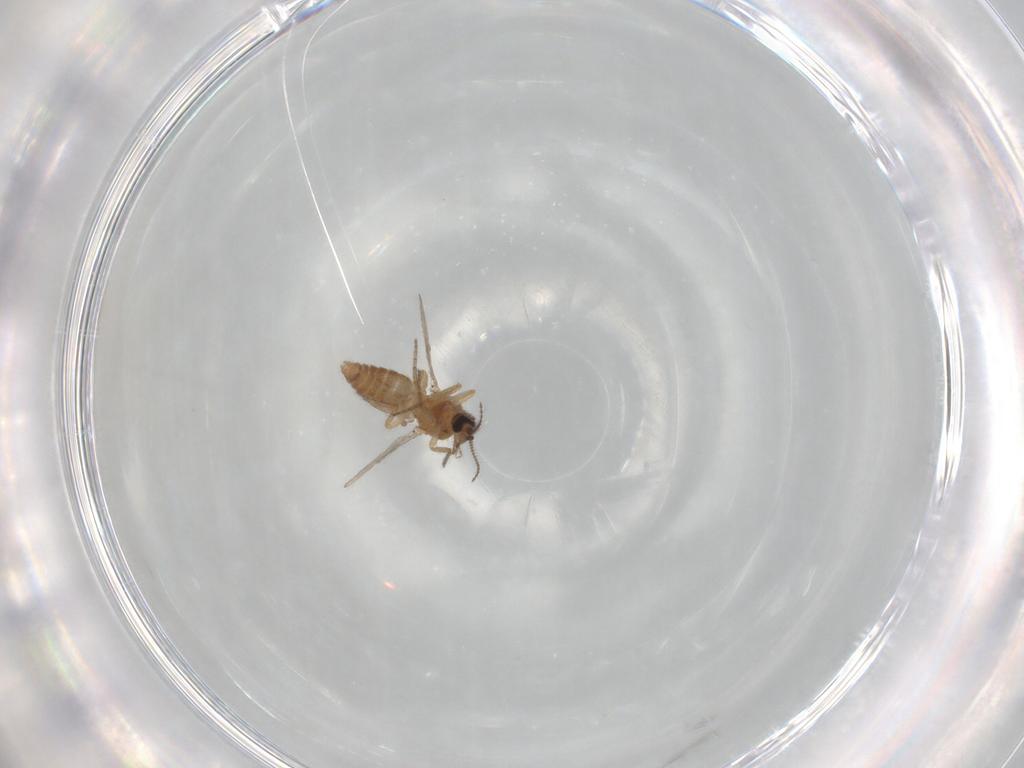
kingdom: Animalia
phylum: Arthropoda
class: Insecta
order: Diptera
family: Ceratopogonidae
